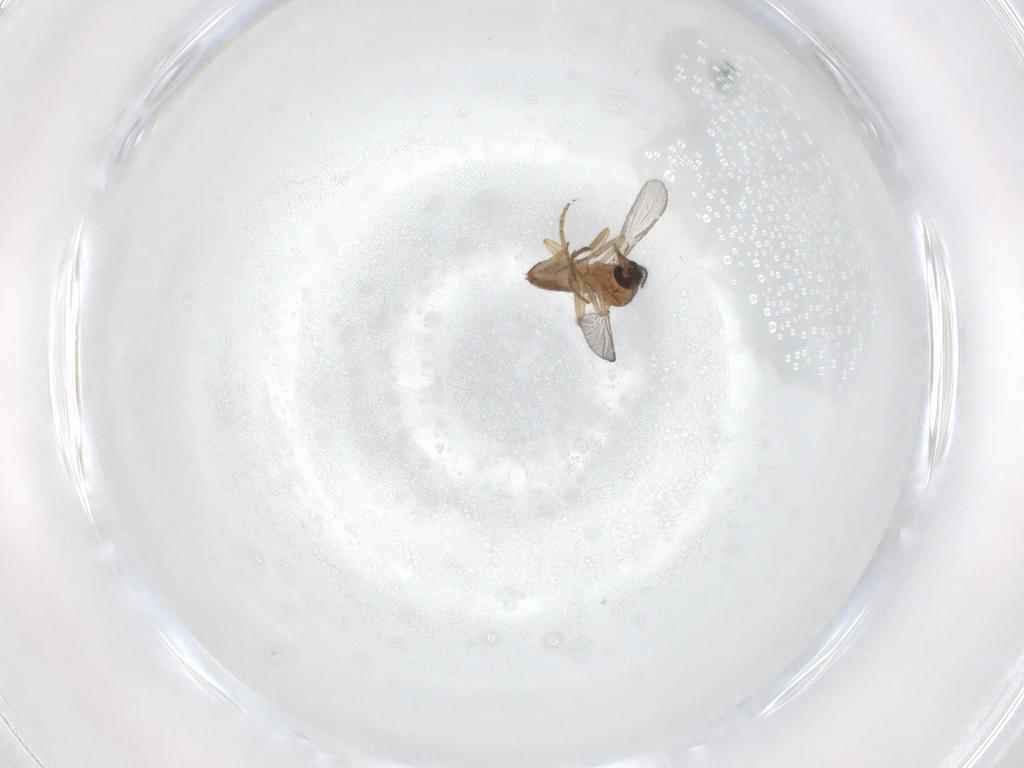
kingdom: Animalia
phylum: Arthropoda
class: Insecta
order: Diptera
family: Ceratopogonidae
